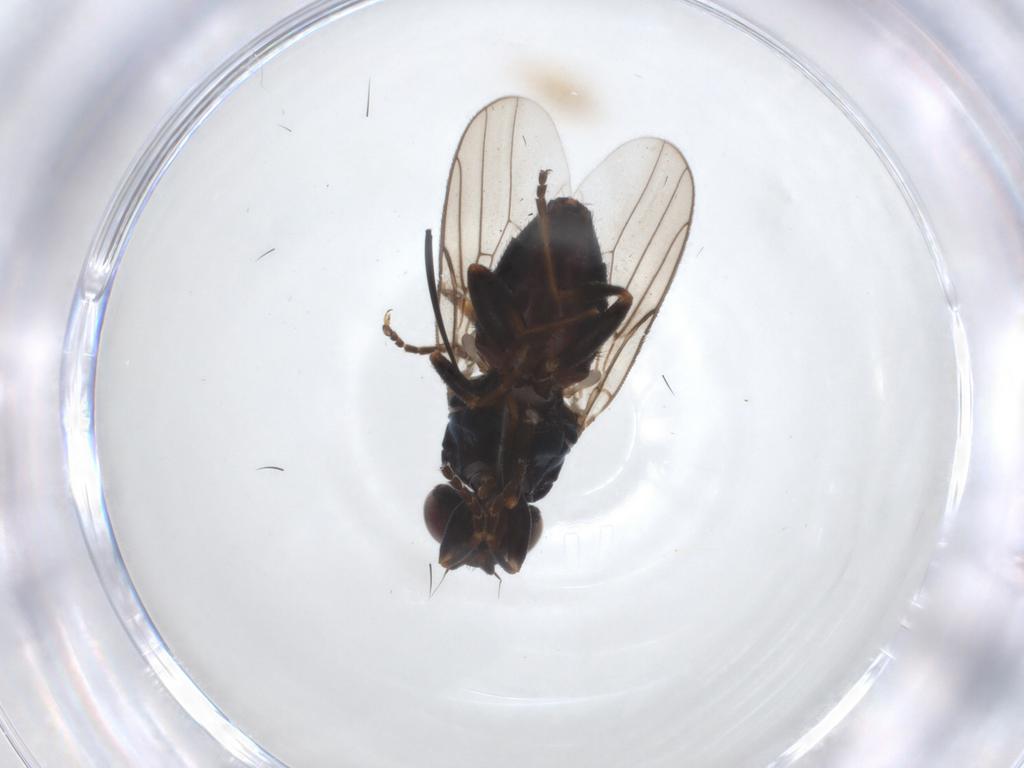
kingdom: Animalia
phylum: Arthropoda
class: Insecta
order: Diptera
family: Chloropidae
